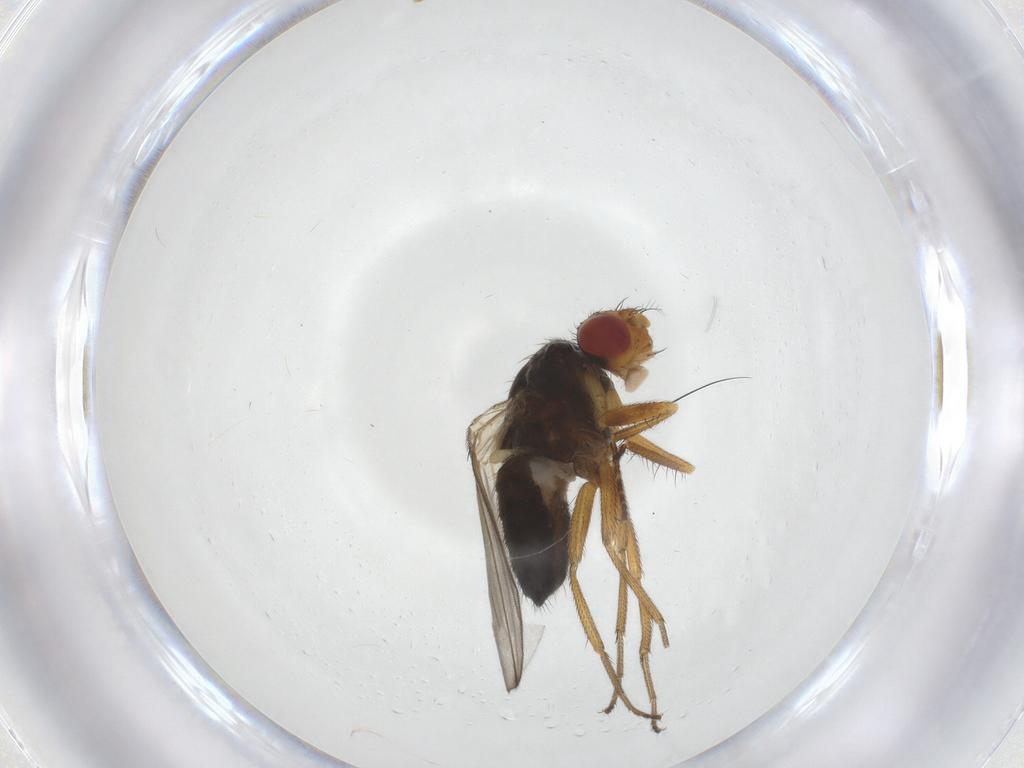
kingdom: Animalia
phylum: Arthropoda
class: Insecta
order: Diptera
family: Drosophilidae
